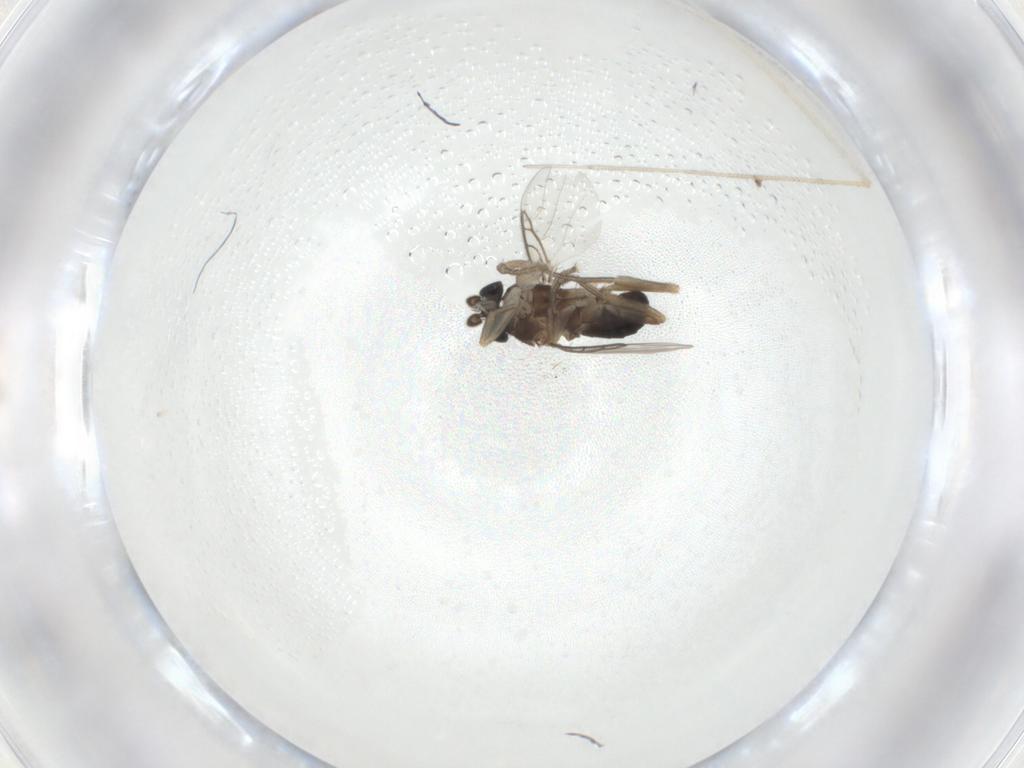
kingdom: Animalia
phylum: Arthropoda
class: Insecta
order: Diptera
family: Phoridae
